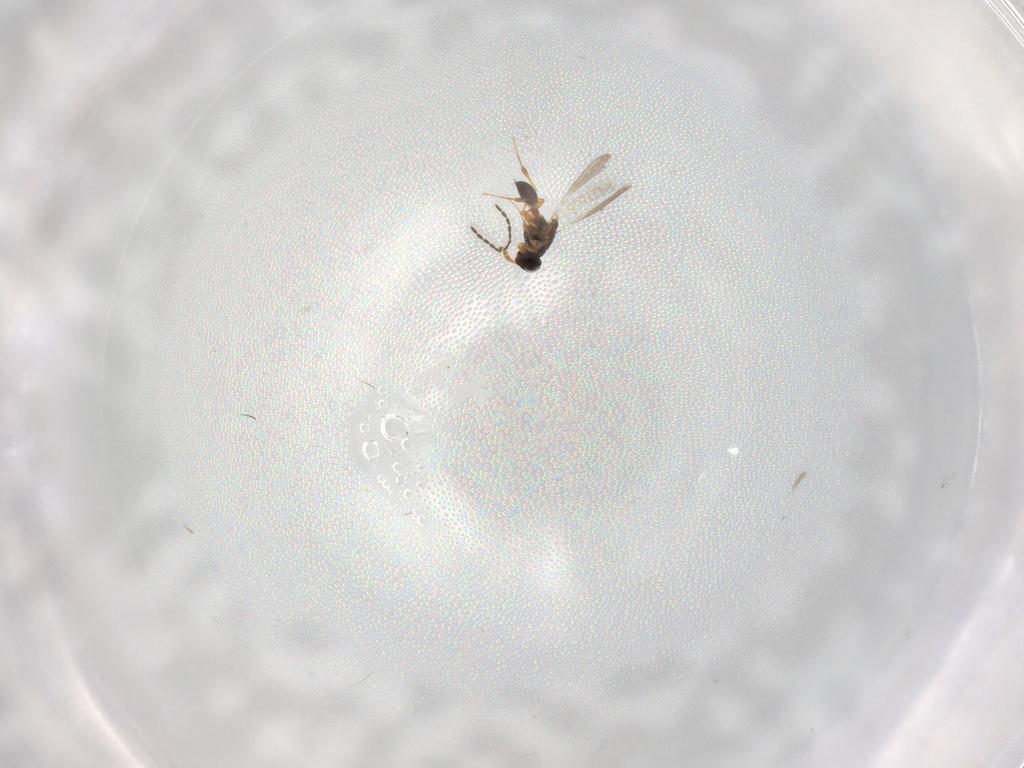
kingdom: Animalia
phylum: Arthropoda
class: Insecta
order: Hymenoptera
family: Platygastridae
